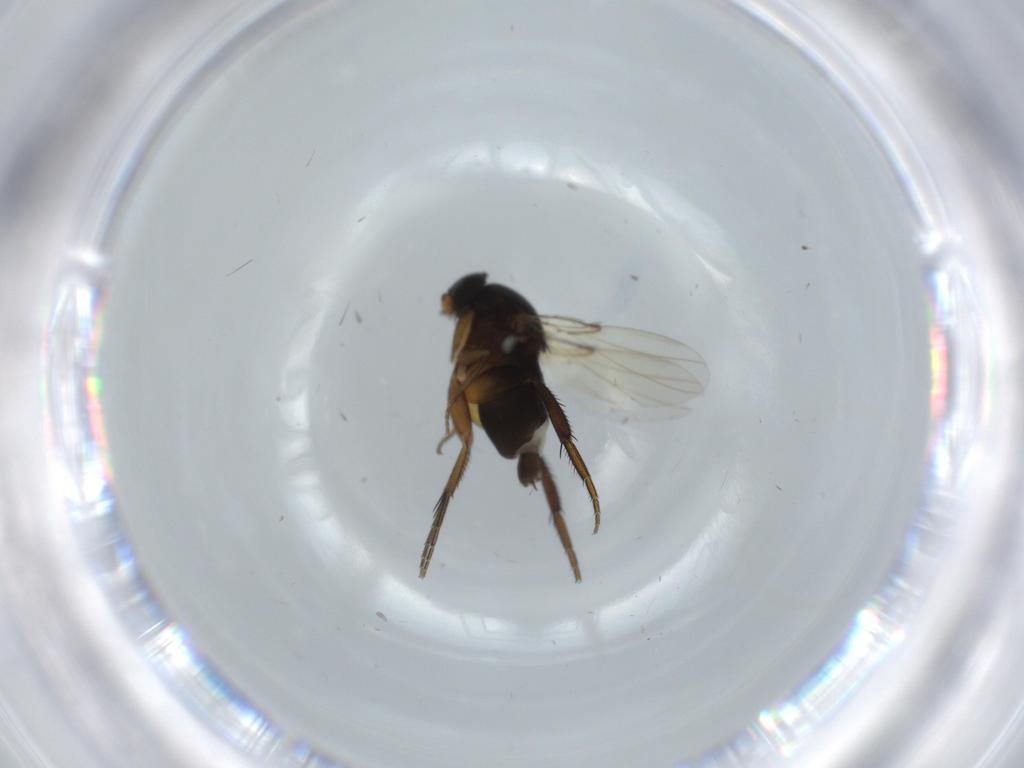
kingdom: Animalia
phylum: Arthropoda
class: Insecta
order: Diptera
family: Phoridae
